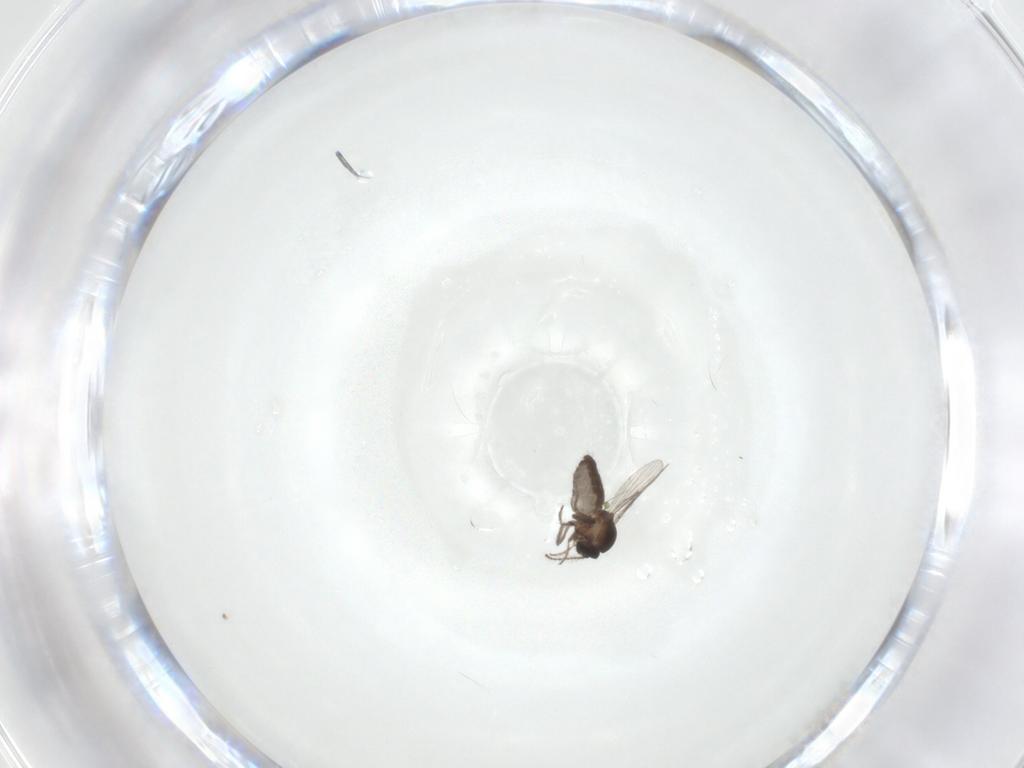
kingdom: Animalia
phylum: Arthropoda
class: Insecta
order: Diptera
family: Ceratopogonidae
